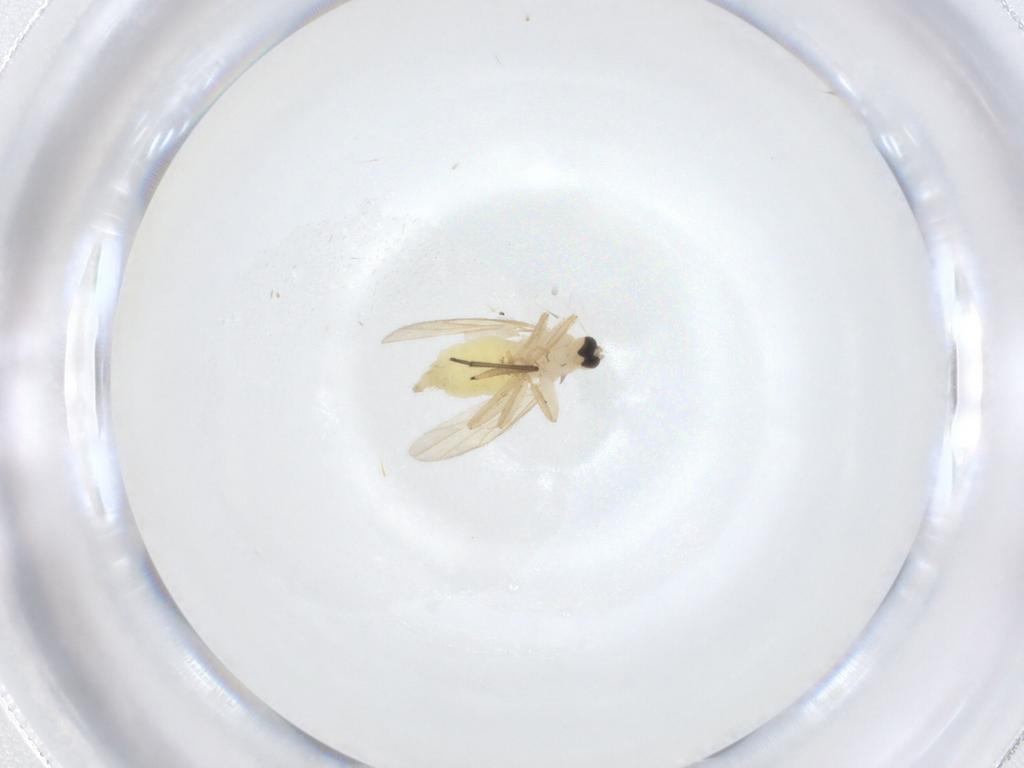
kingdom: Animalia
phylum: Arthropoda
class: Insecta
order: Diptera
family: Hybotidae
